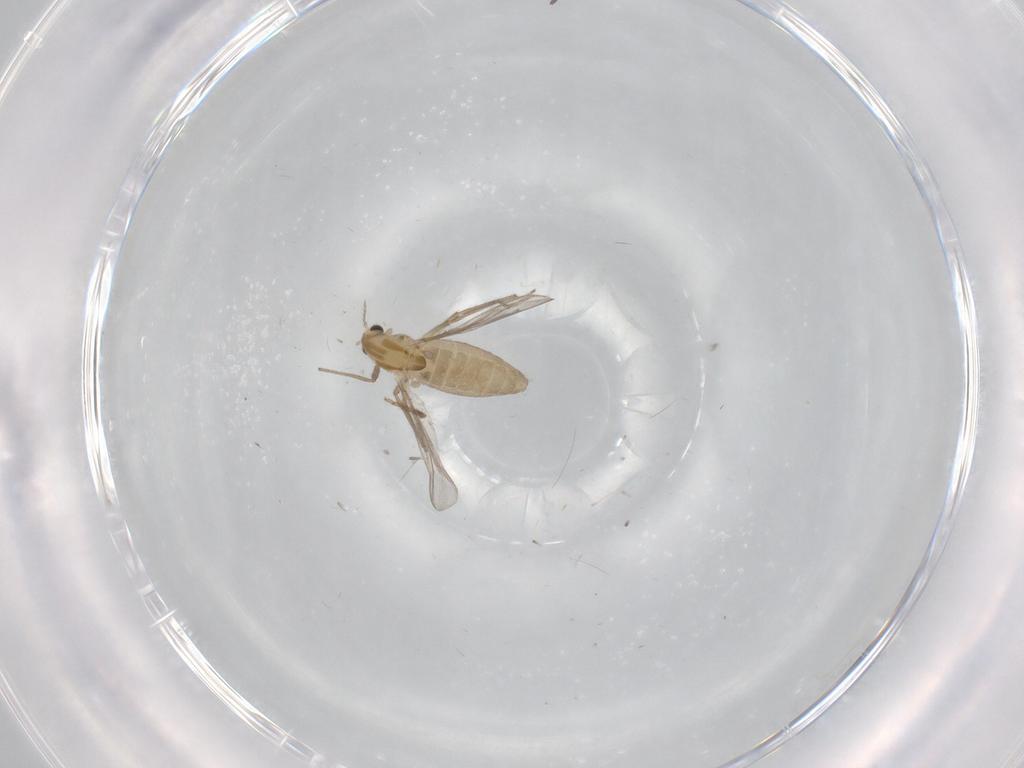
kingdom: Animalia
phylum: Arthropoda
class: Insecta
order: Diptera
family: Chironomidae
